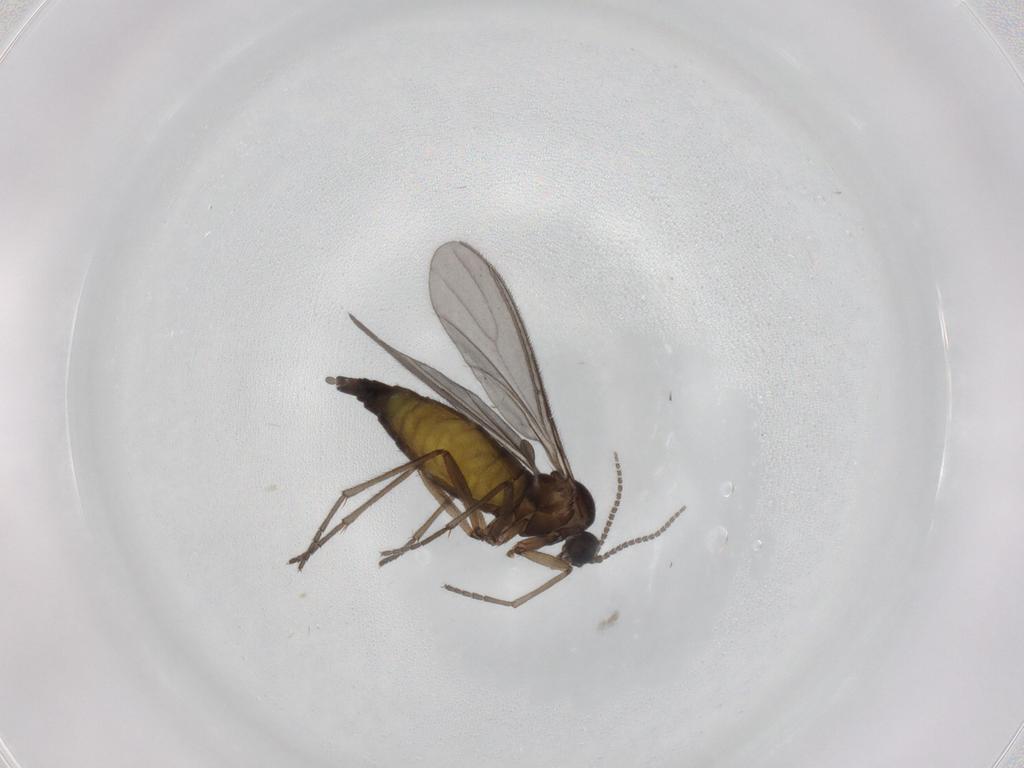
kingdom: Animalia
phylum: Arthropoda
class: Insecta
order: Diptera
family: Sciaridae
